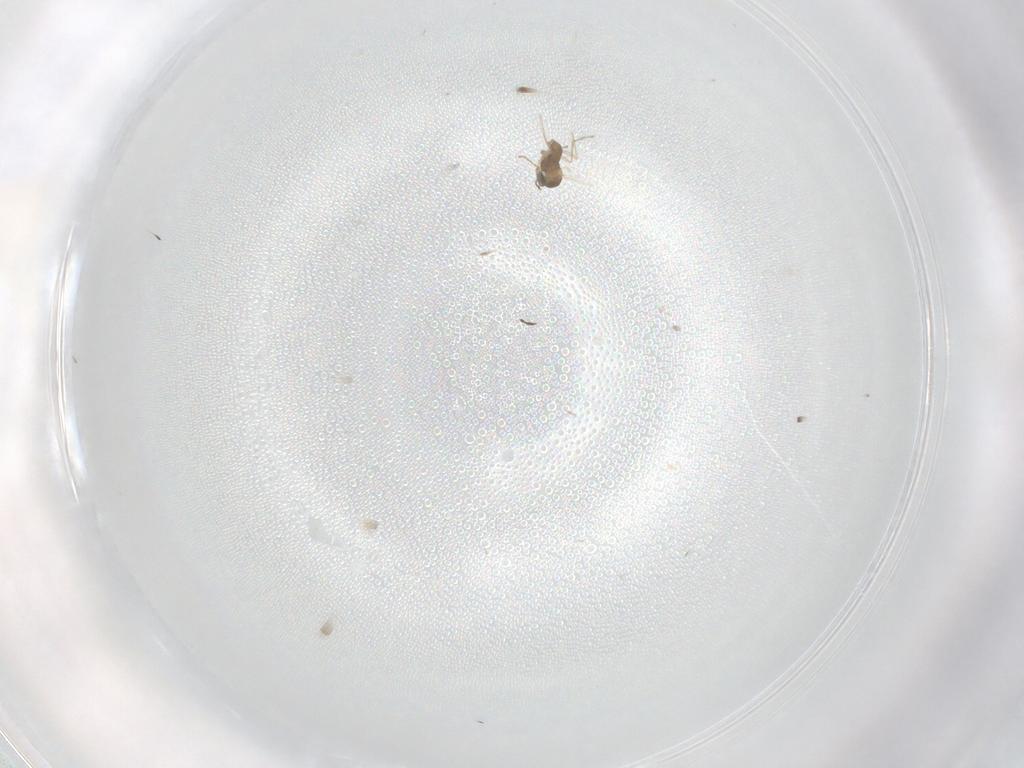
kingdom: Animalia
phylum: Arthropoda
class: Insecta
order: Diptera
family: Cecidomyiidae
